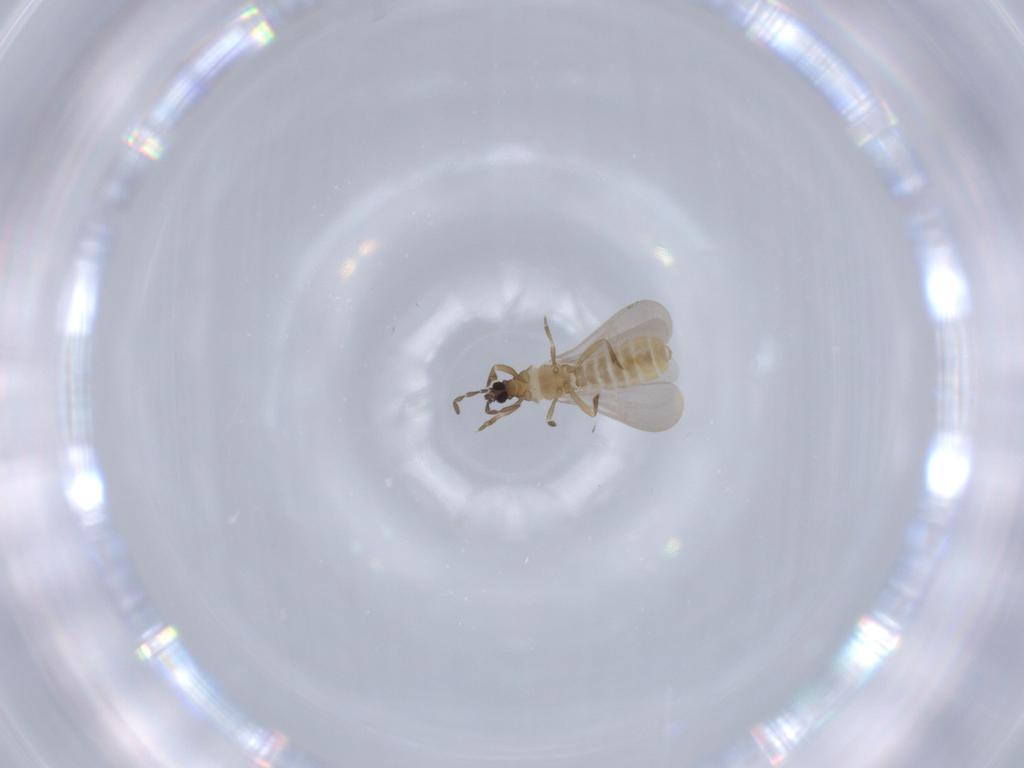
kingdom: Animalia
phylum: Arthropoda
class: Insecta
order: Hemiptera
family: Enicocephalidae
